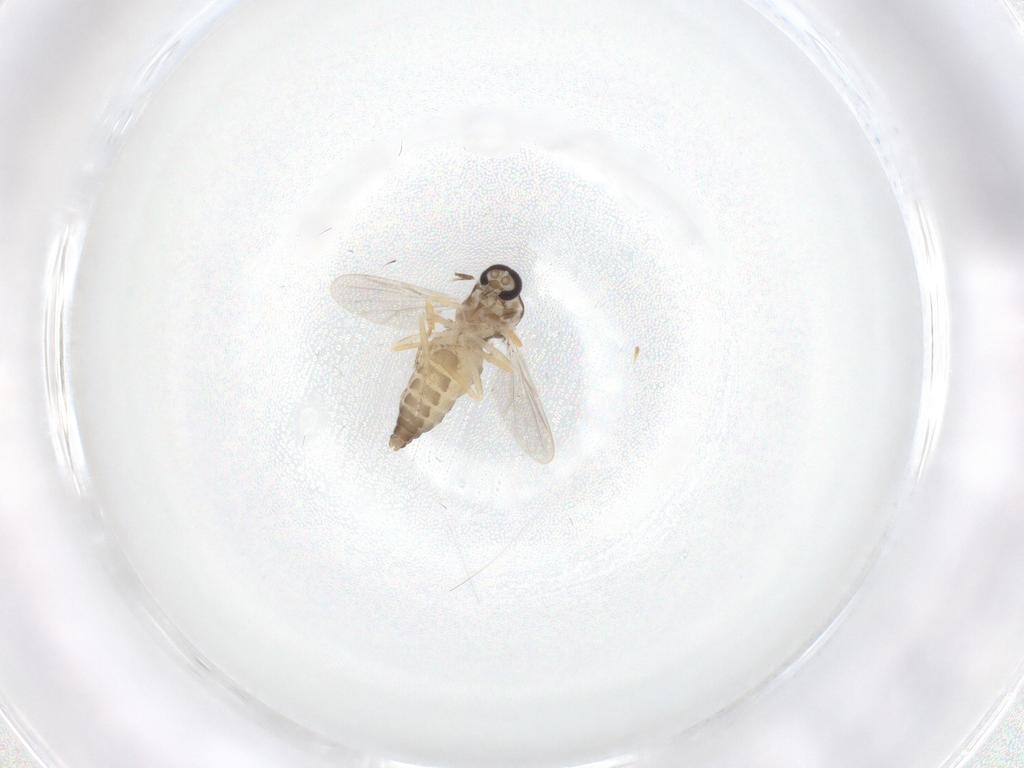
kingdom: Animalia
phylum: Arthropoda
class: Insecta
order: Diptera
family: Ceratopogonidae
